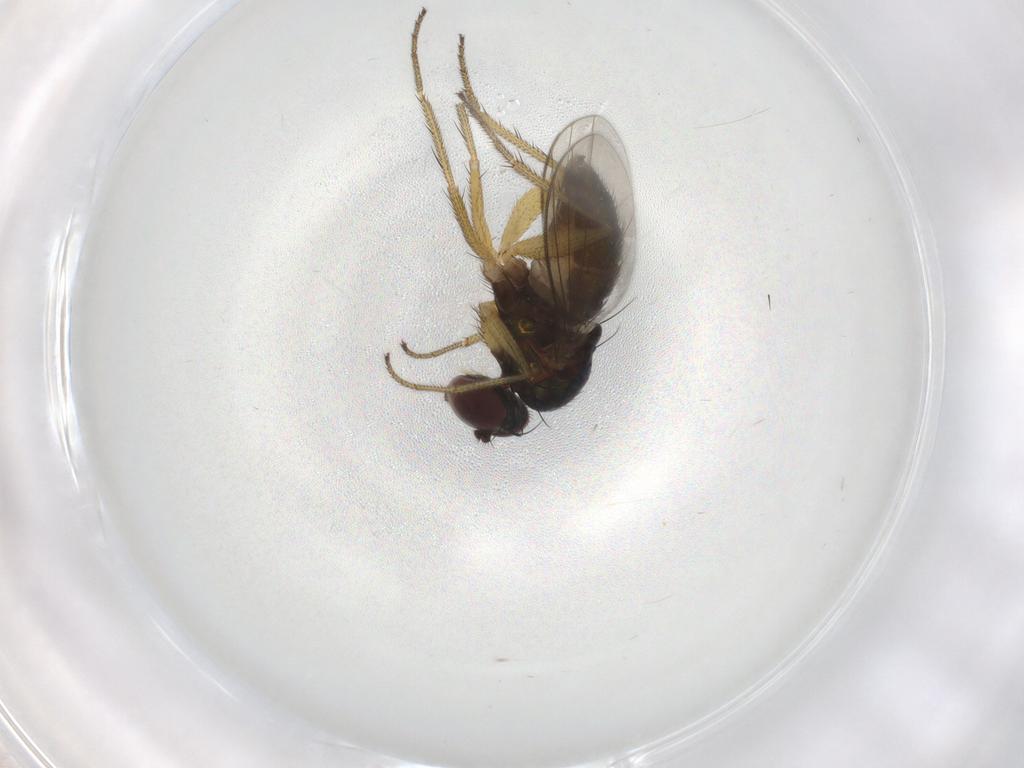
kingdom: Animalia
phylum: Arthropoda
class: Insecta
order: Diptera
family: Dolichopodidae
